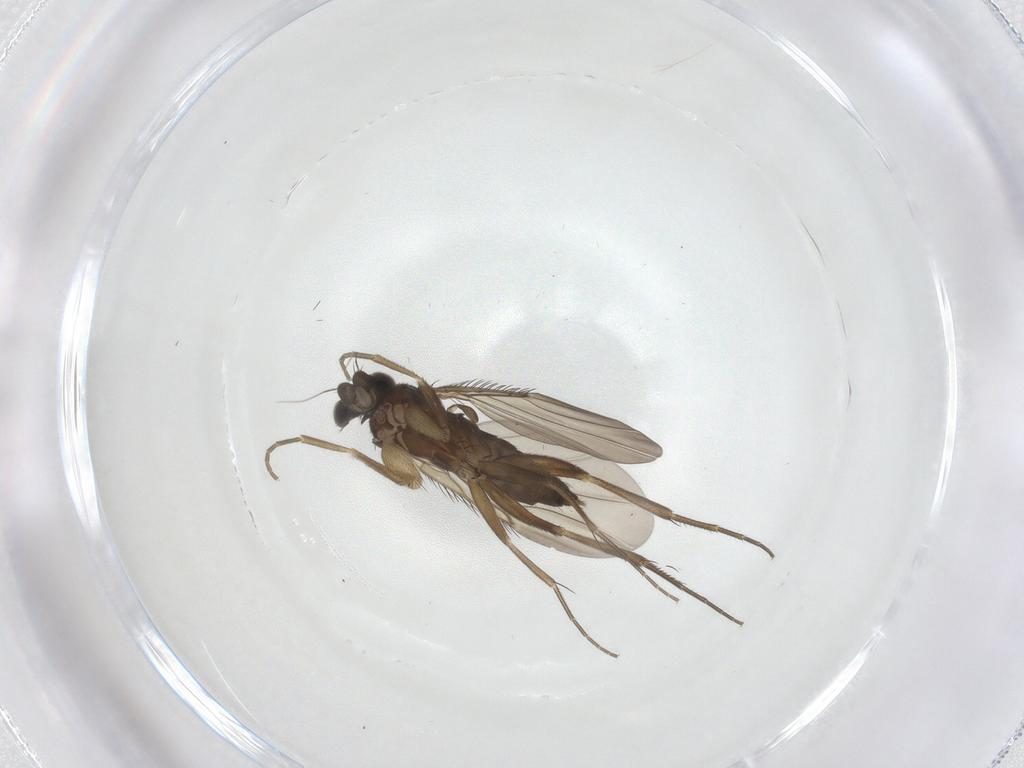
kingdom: Animalia
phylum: Arthropoda
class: Insecta
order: Diptera
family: Phoridae
